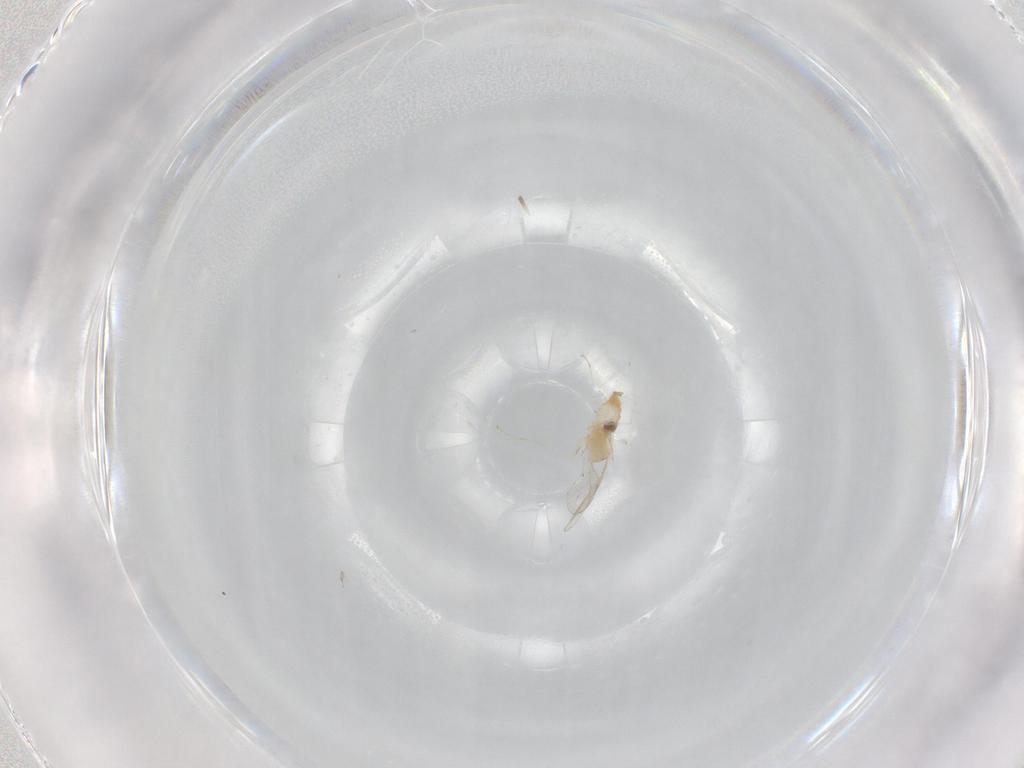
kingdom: Animalia
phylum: Arthropoda
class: Insecta
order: Diptera
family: Cecidomyiidae
